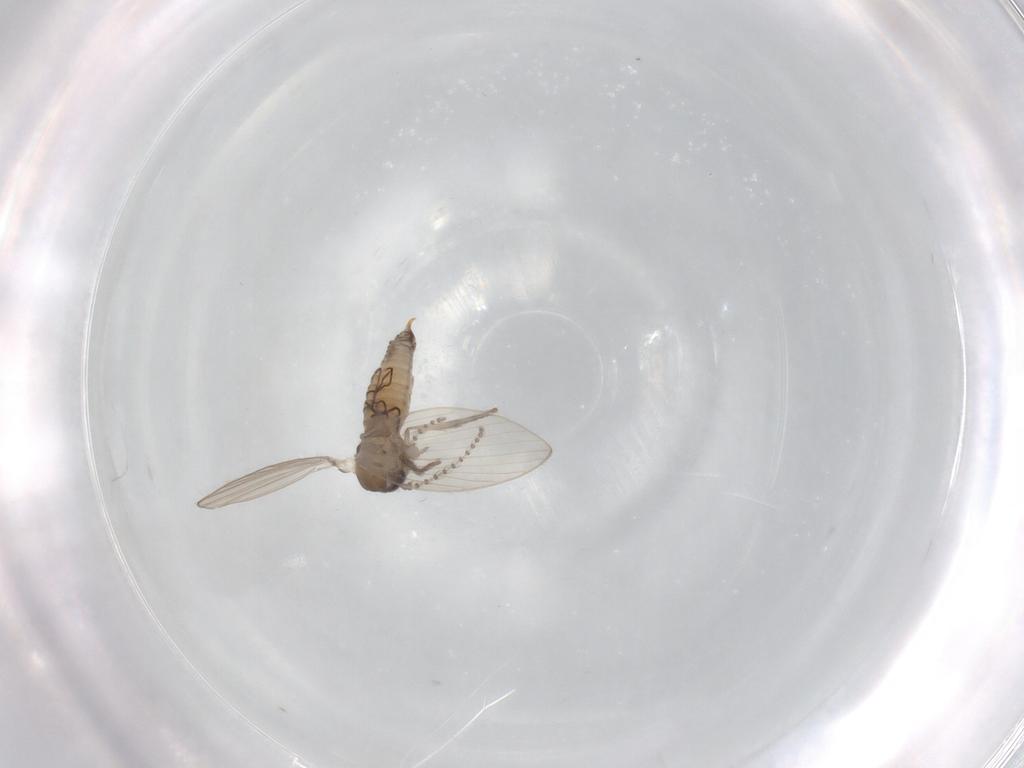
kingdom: Animalia
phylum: Arthropoda
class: Insecta
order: Diptera
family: Psychodidae
